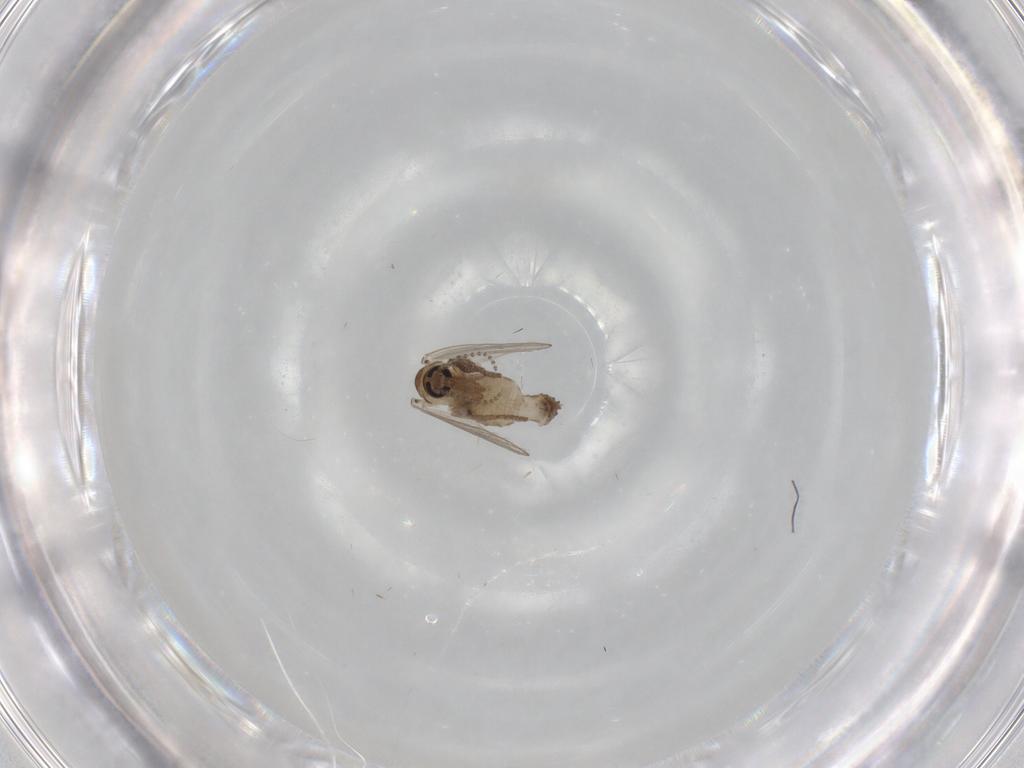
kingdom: Animalia
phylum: Arthropoda
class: Insecta
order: Diptera
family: Psychodidae
